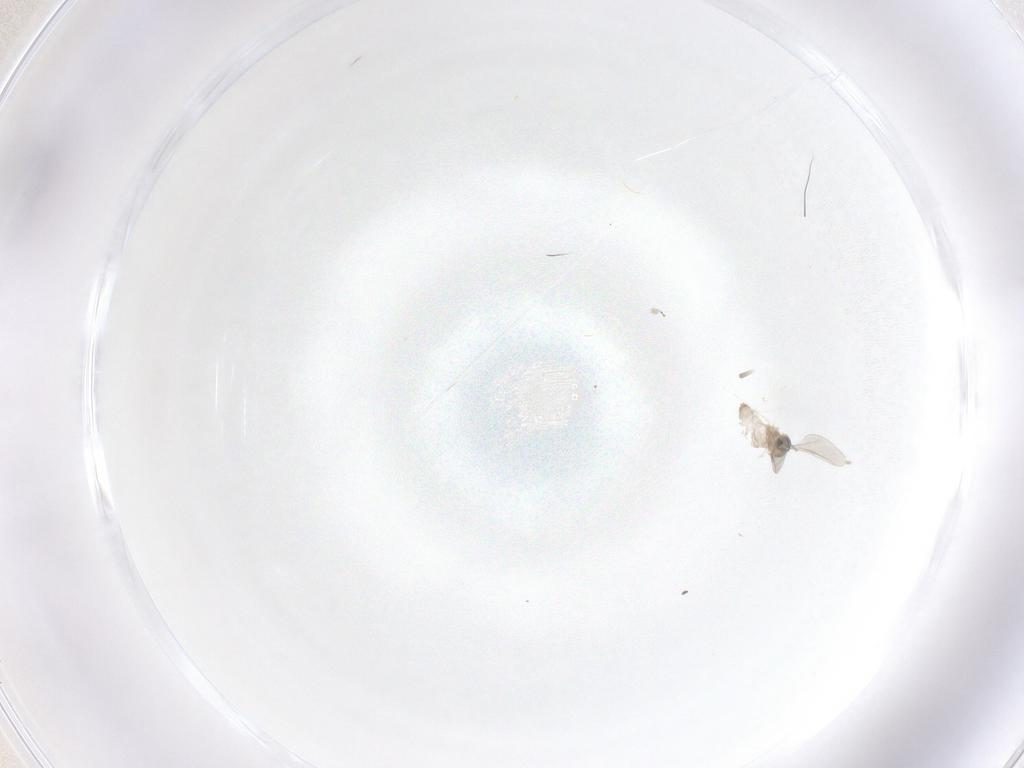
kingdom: Animalia
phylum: Arthropoda
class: Insecta
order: Diptera
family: Cecidomyiidae
